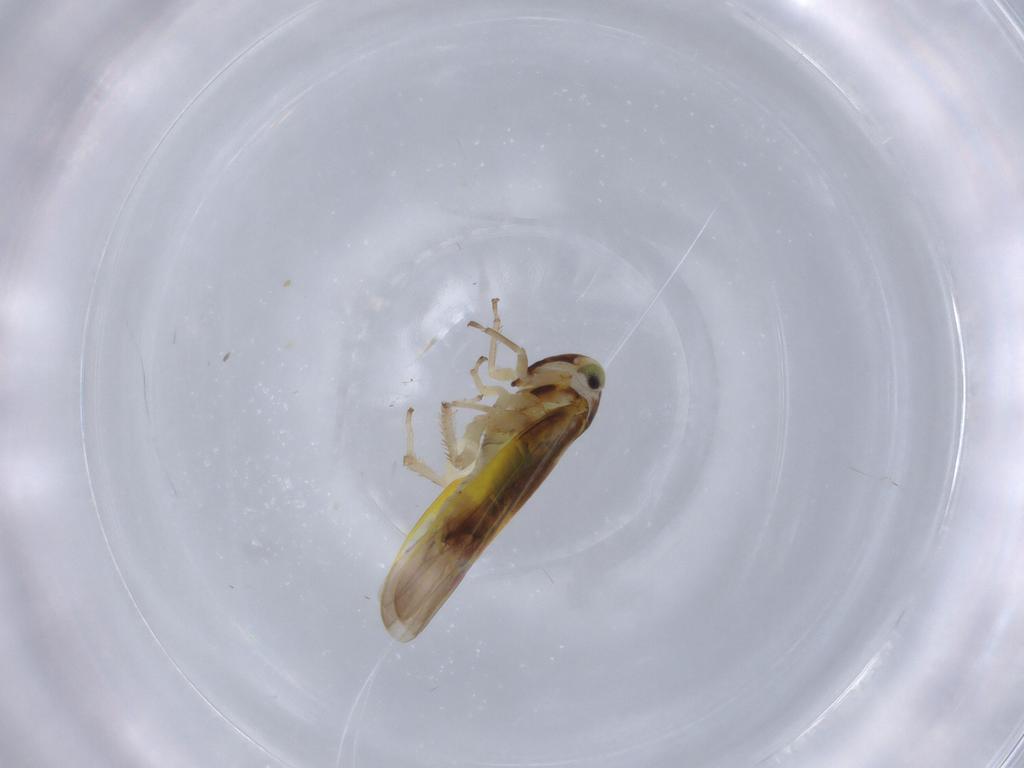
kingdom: Animalia
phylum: Arthropoda
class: Insecta
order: Hemiptera
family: Cicadellidae
